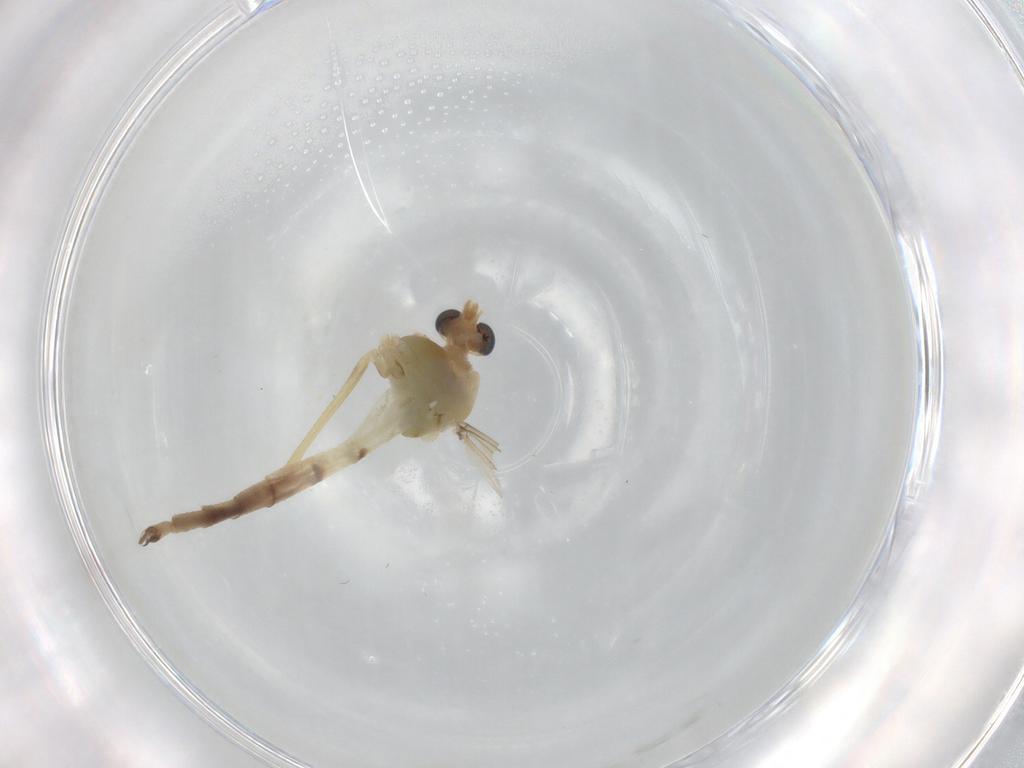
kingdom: Animalia
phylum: Arthropoda
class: Insecta
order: Diptera
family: Chironomidae
